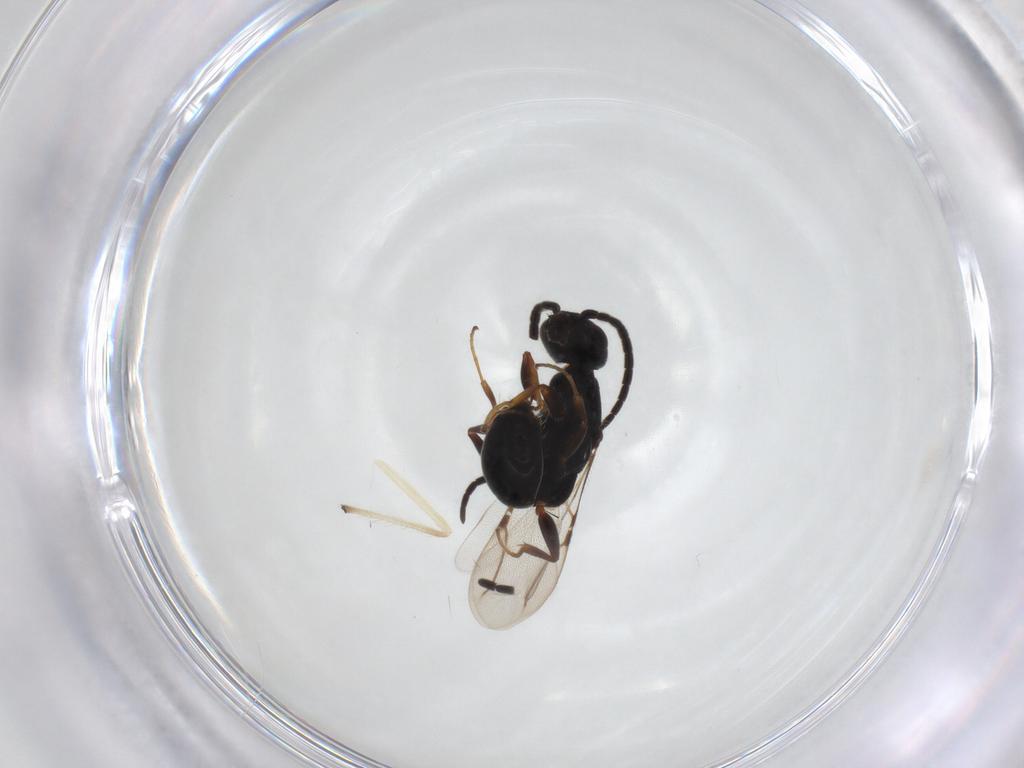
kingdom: Animalia
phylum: Arthropoda
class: Insecta
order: Hymenoptera
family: Bethylidae
